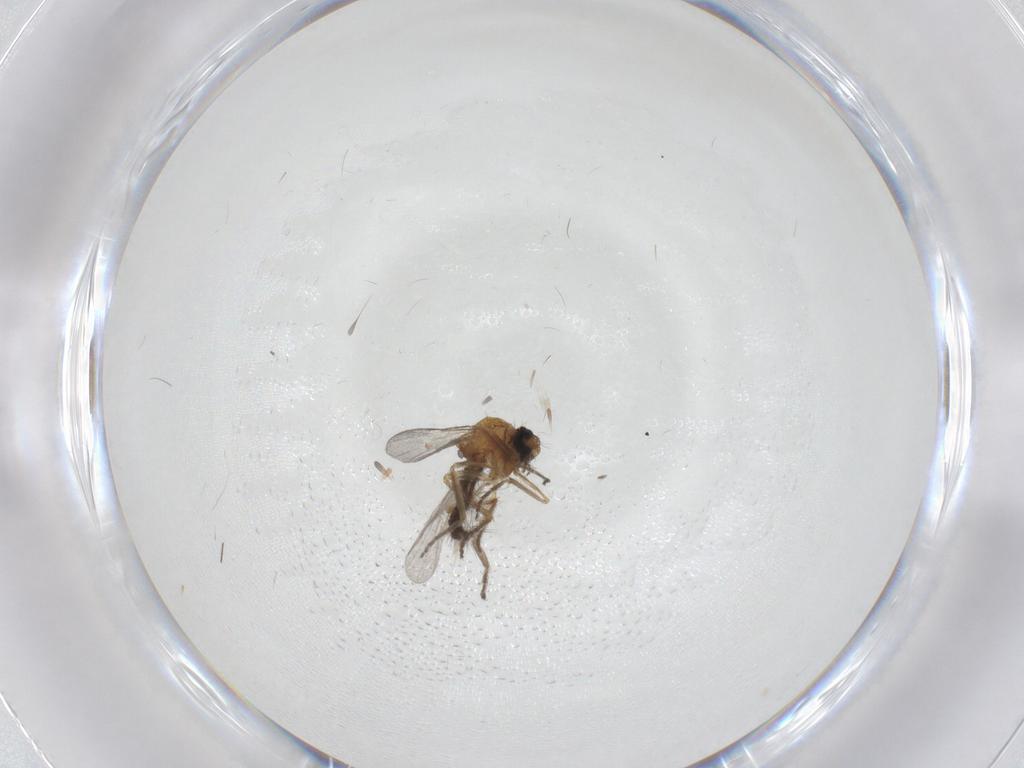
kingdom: Animalia
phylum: Arthropoda
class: Insecta
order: Diptera
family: Ceratopogonidae
